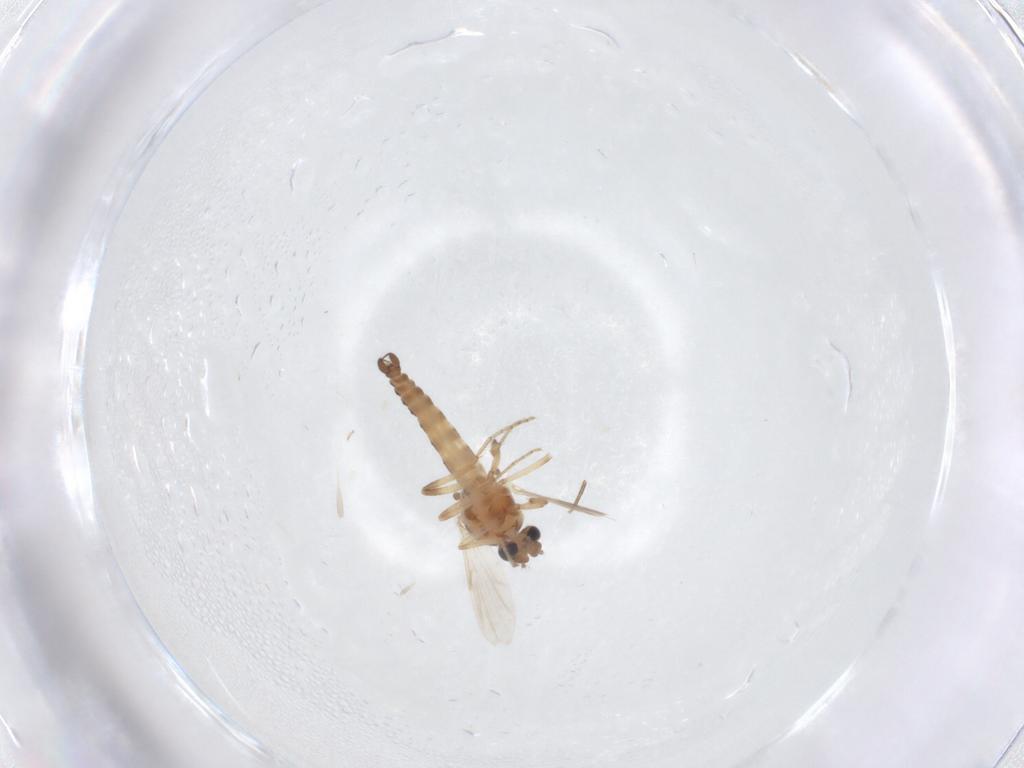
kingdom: Animalia
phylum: Arthropoda
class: Insecta
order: Diptera
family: Ceratopogonidae
